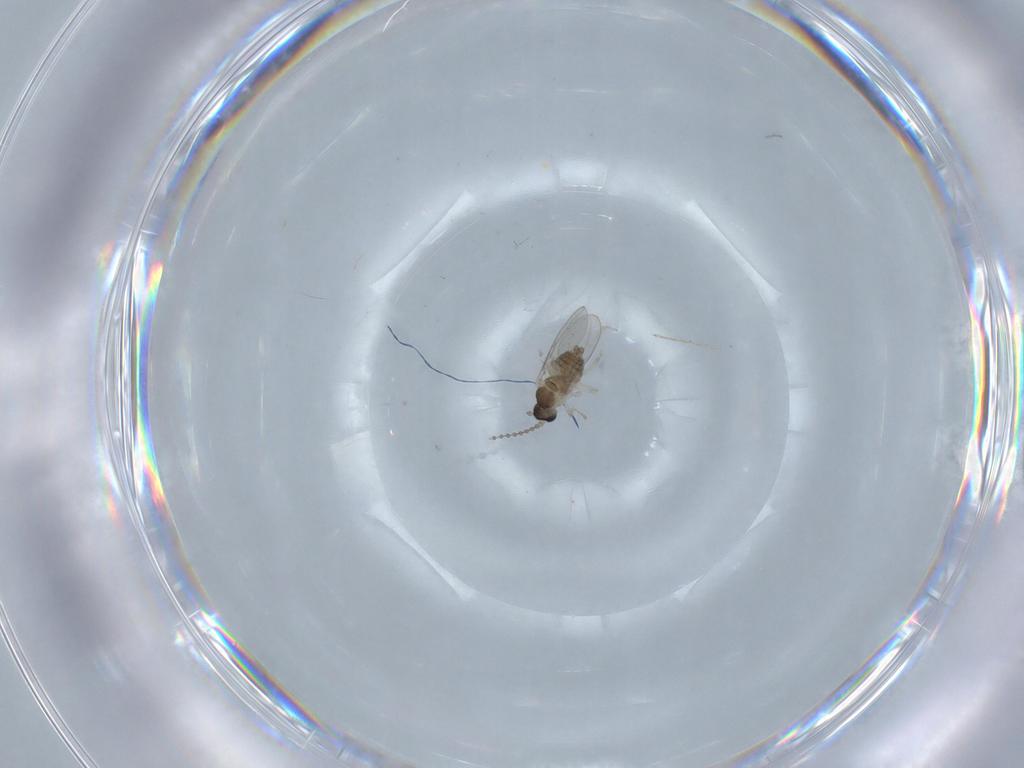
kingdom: Animalia
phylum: Arthropoda
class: Insecta
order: Diptera
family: Cecidomyiidae
